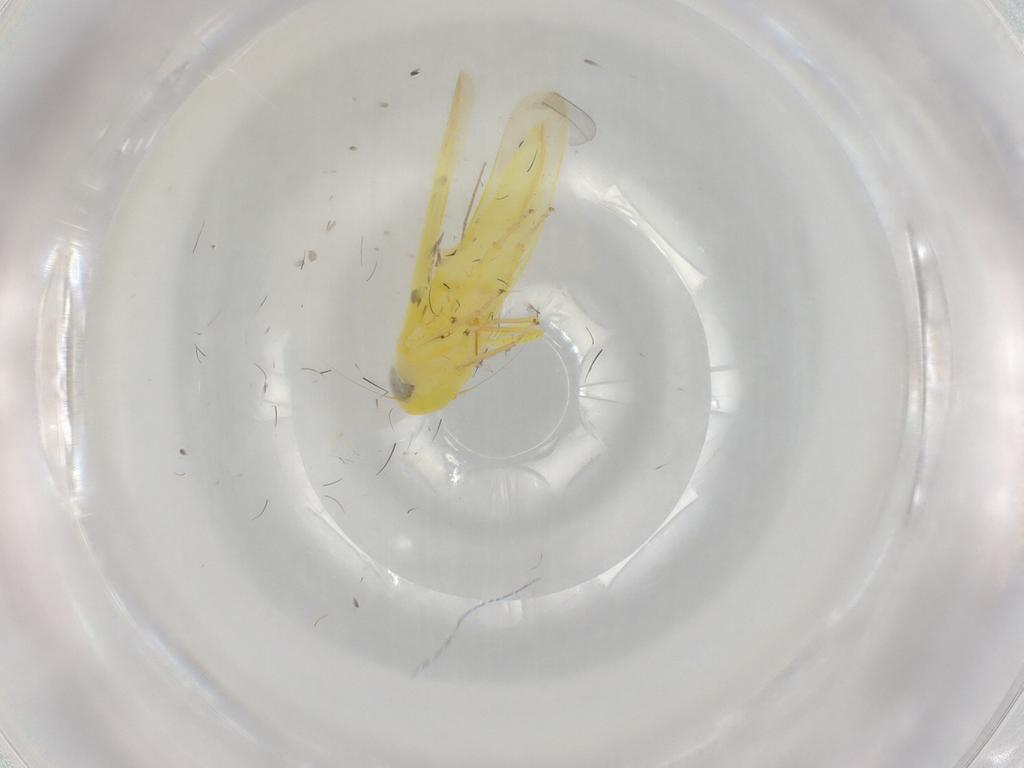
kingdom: Animalia
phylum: Arthropoda
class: Insecta
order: Hemiptera
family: Cicadellidae
